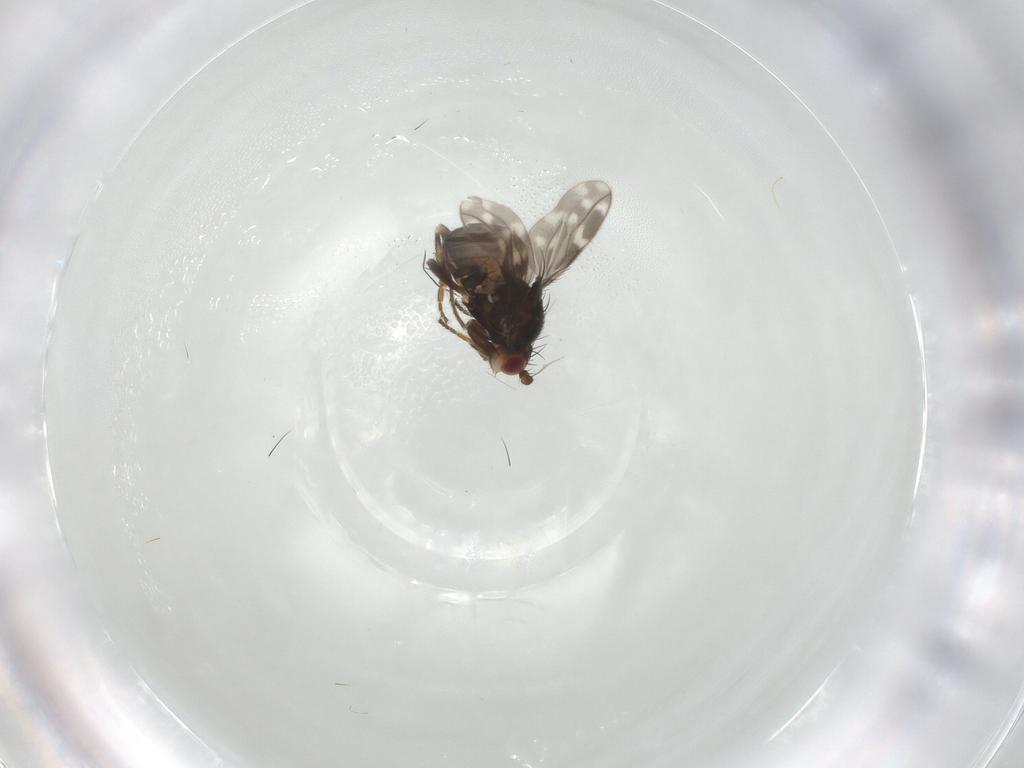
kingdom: Animalia
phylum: Arthropoda
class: Insecta
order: Diptera
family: Sphaeroceridae
